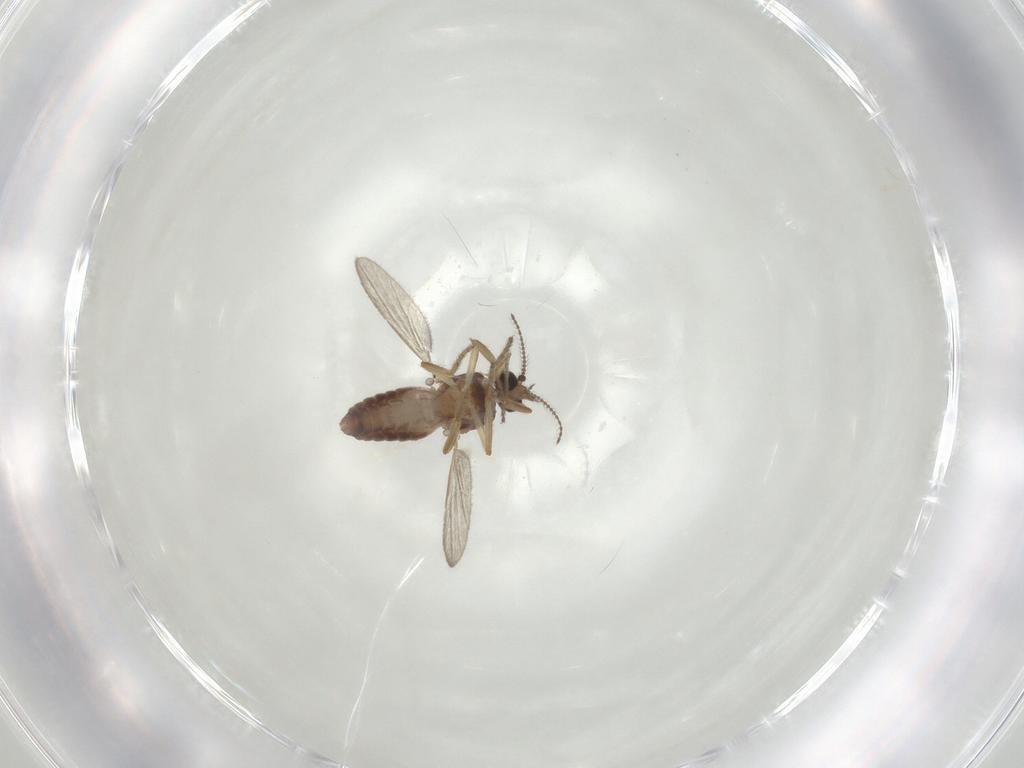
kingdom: Animalia
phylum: Arthropoda
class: Insecta
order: Diptera
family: Ceratopogonidae
